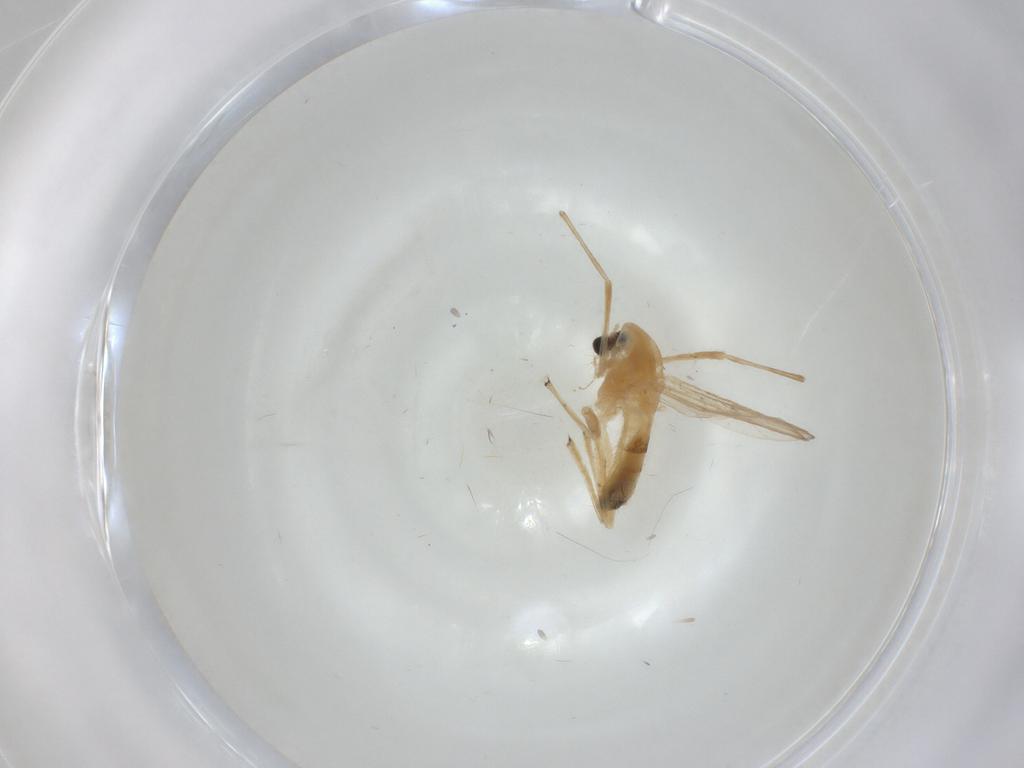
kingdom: Animalia
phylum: Arthropoda
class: Insecta
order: Diptera
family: Chironomidae
